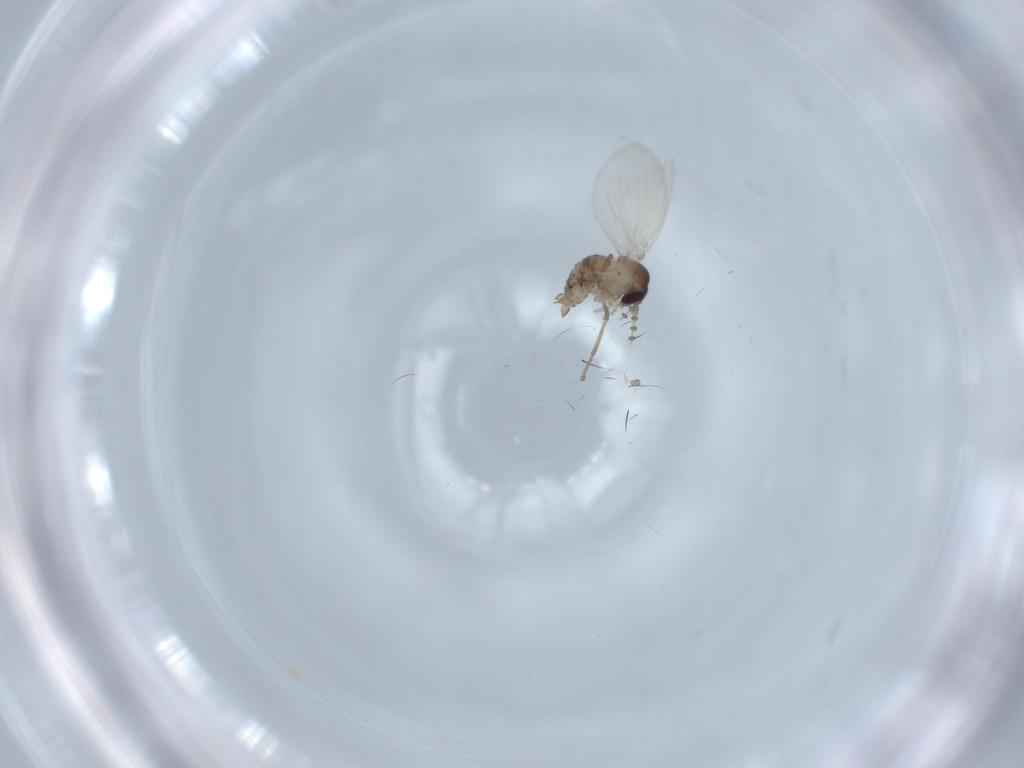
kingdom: Animalia
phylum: Arthropoda
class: Insecta
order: Diptera
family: Psychodidae
